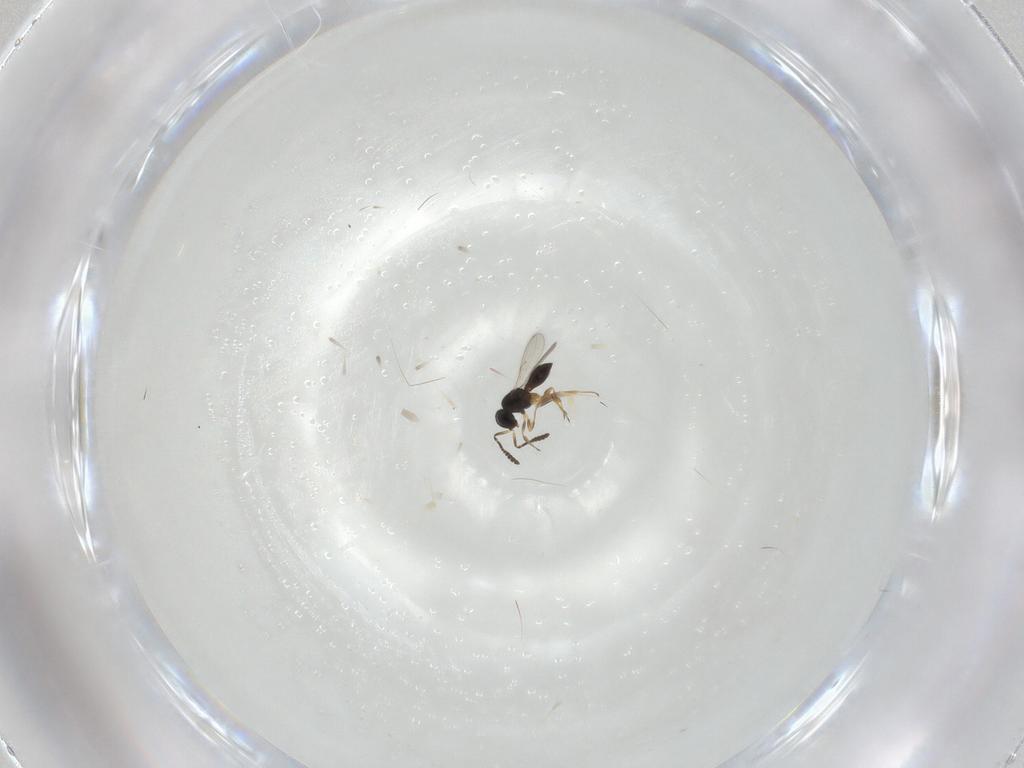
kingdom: Animalia
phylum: Arthropoda
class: Insecta
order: Hymenoptera
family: Scelionidae
